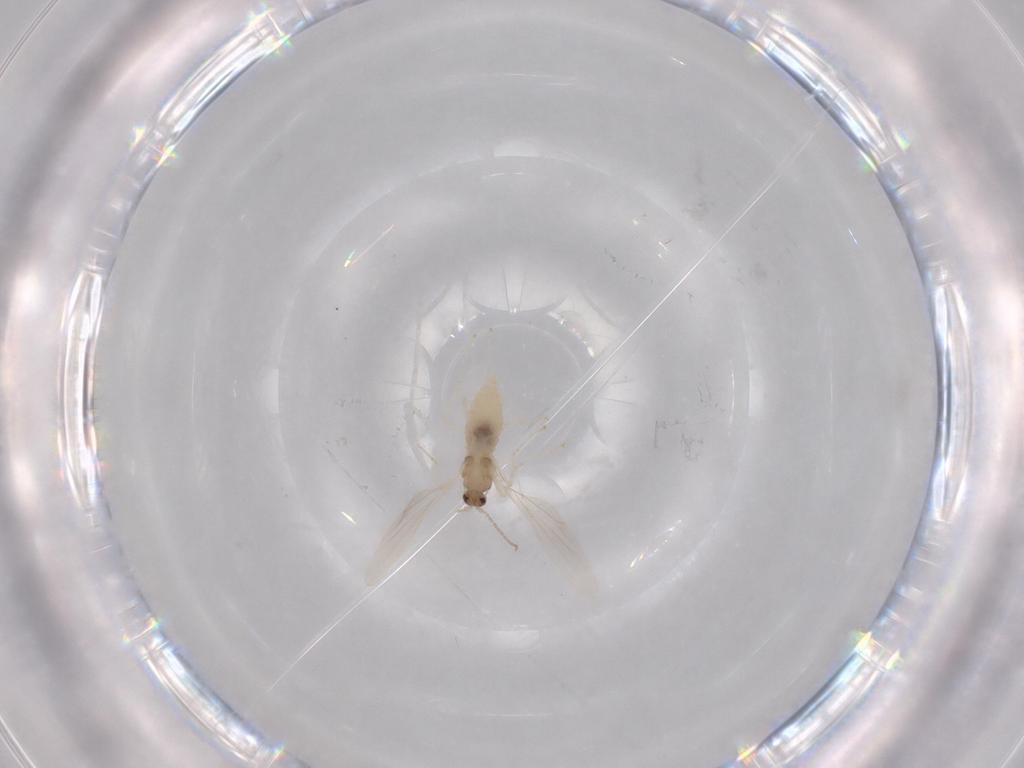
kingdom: Animalia
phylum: Arthropoda
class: Insecta
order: Diptera
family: Cecidomyiidae
